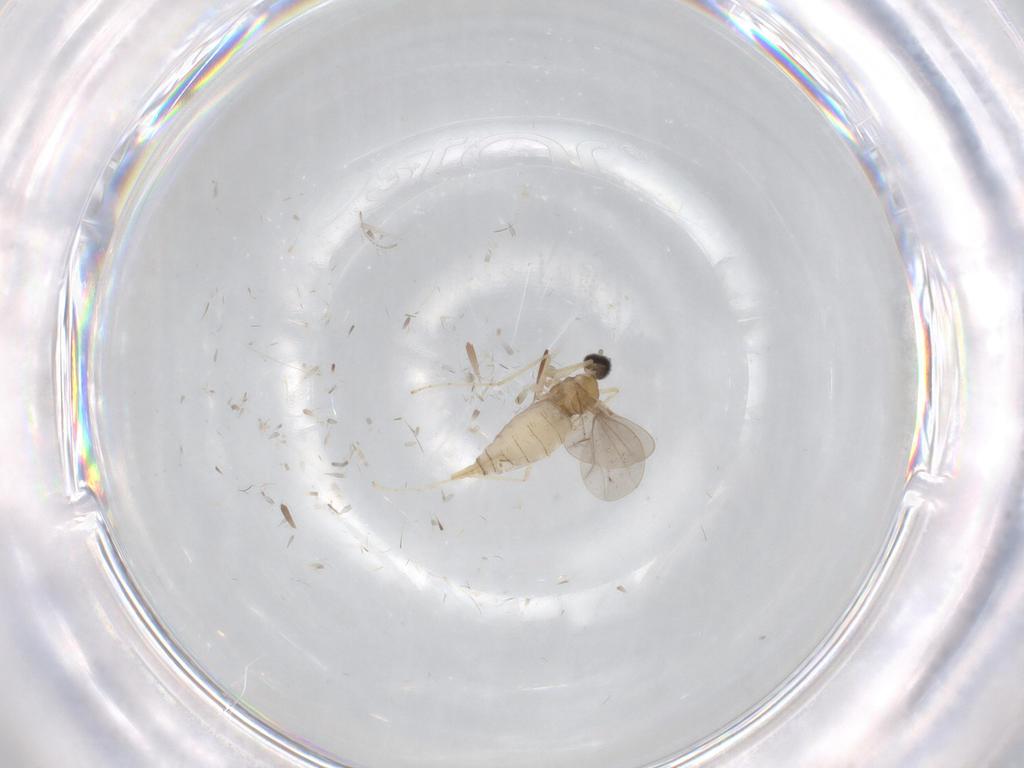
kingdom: Animalia
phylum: Arthropoda
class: Insecta
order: Diptera
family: Cecidomyiidae
